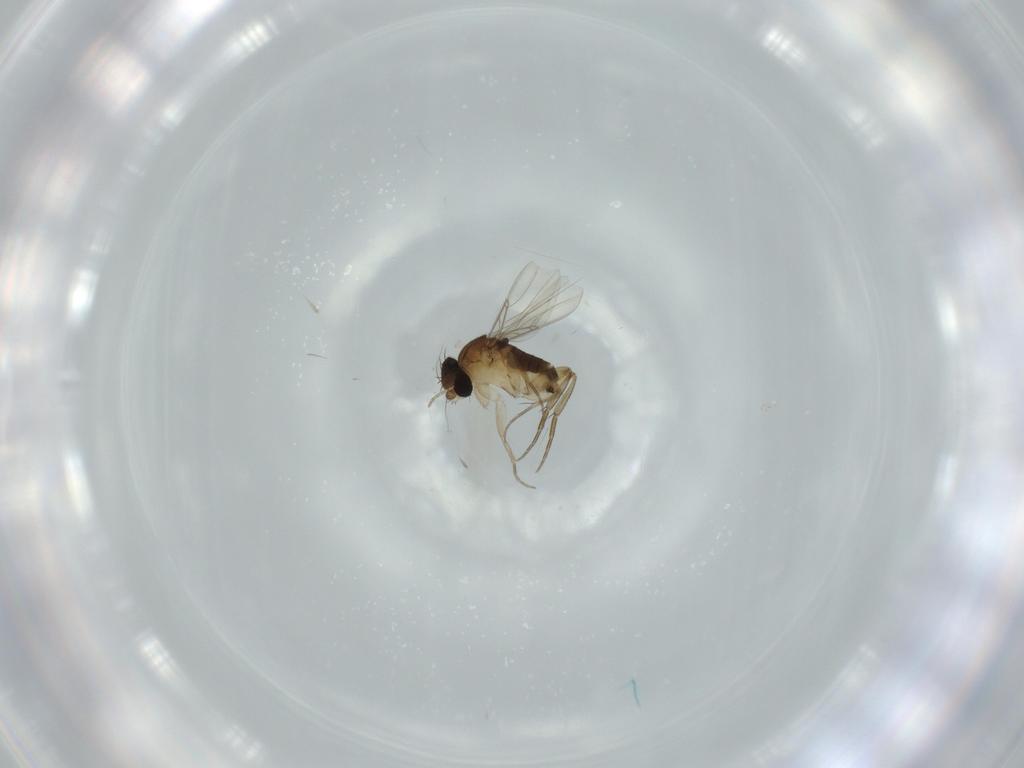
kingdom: Animalia
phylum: Arthropoda
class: Insecta
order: Diptera
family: Phoridae
